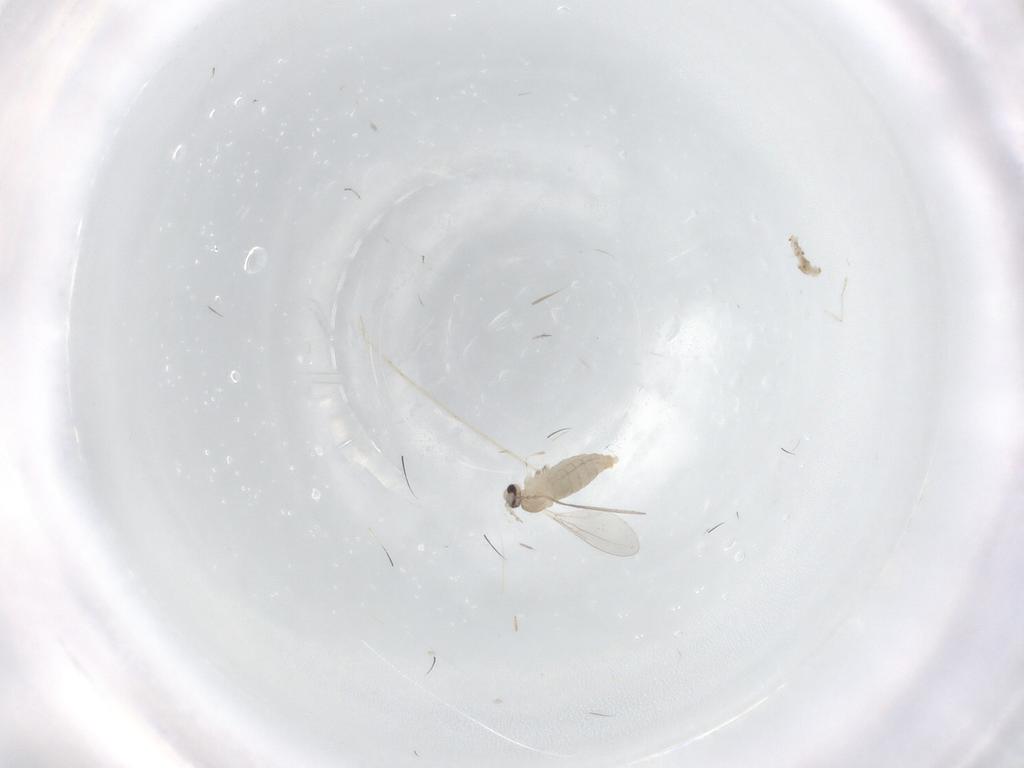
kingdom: Animalia
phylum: Arthropoda
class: Insecta
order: Diptera
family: Cecidomyiidae
